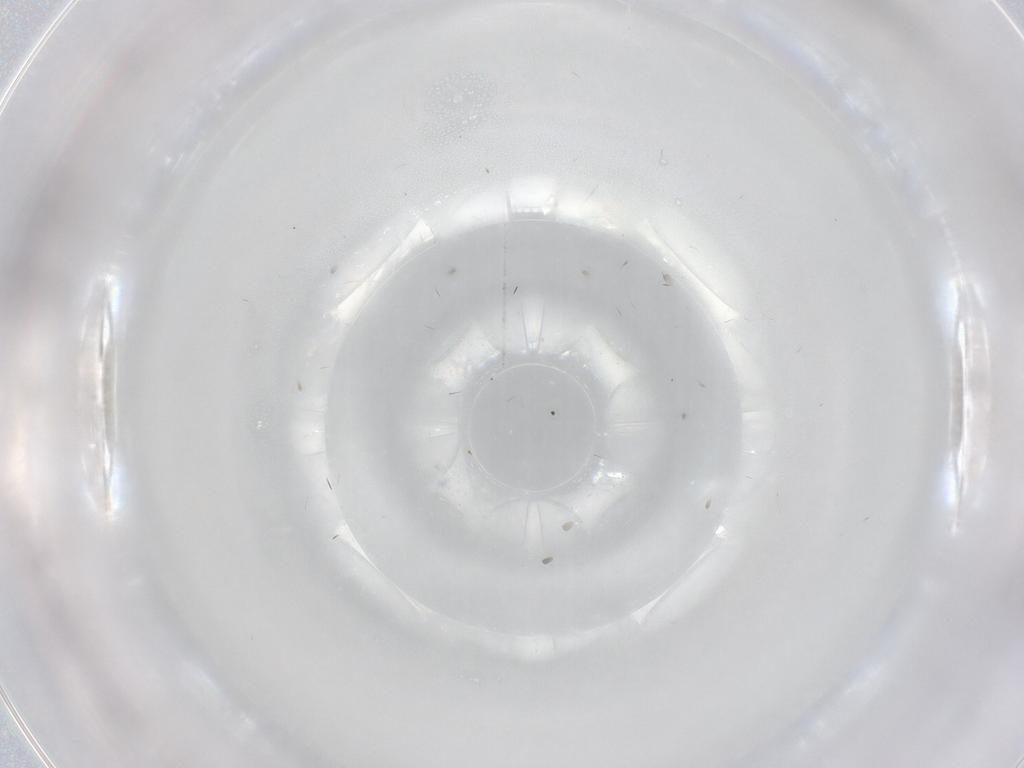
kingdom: Animalia
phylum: Arthropoda
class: Insecta
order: Hemiptera
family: Cicadellidae
